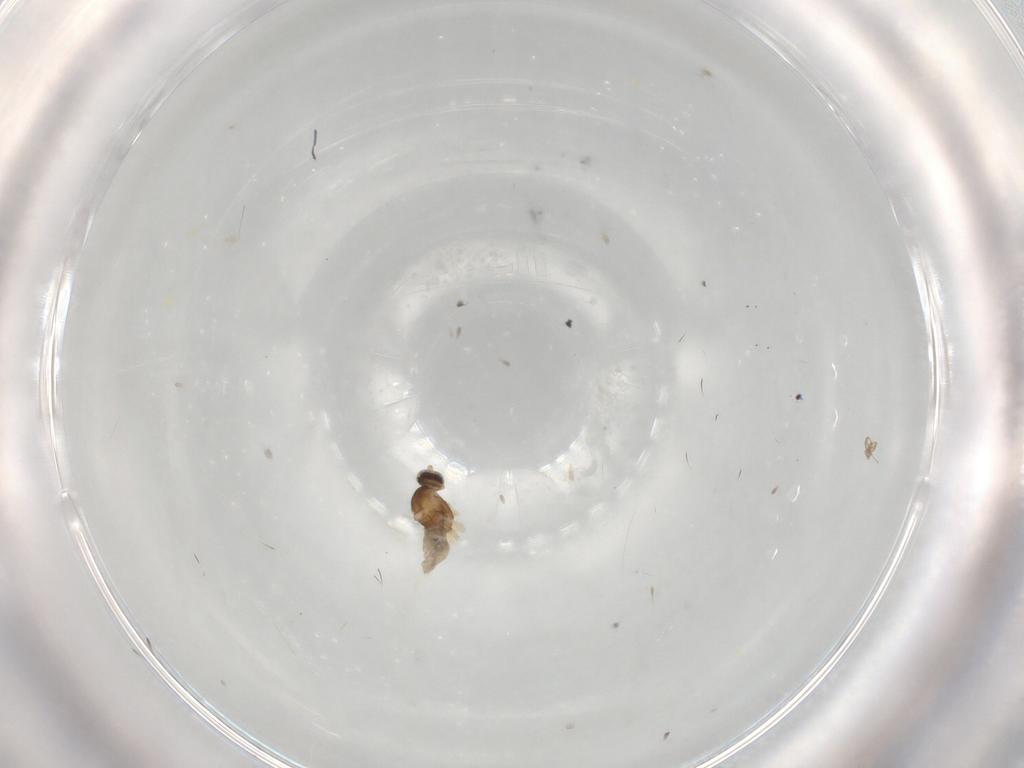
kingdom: Animalia
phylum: Arthropoda
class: Insecta
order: Diptera
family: Cecidomyiidae
